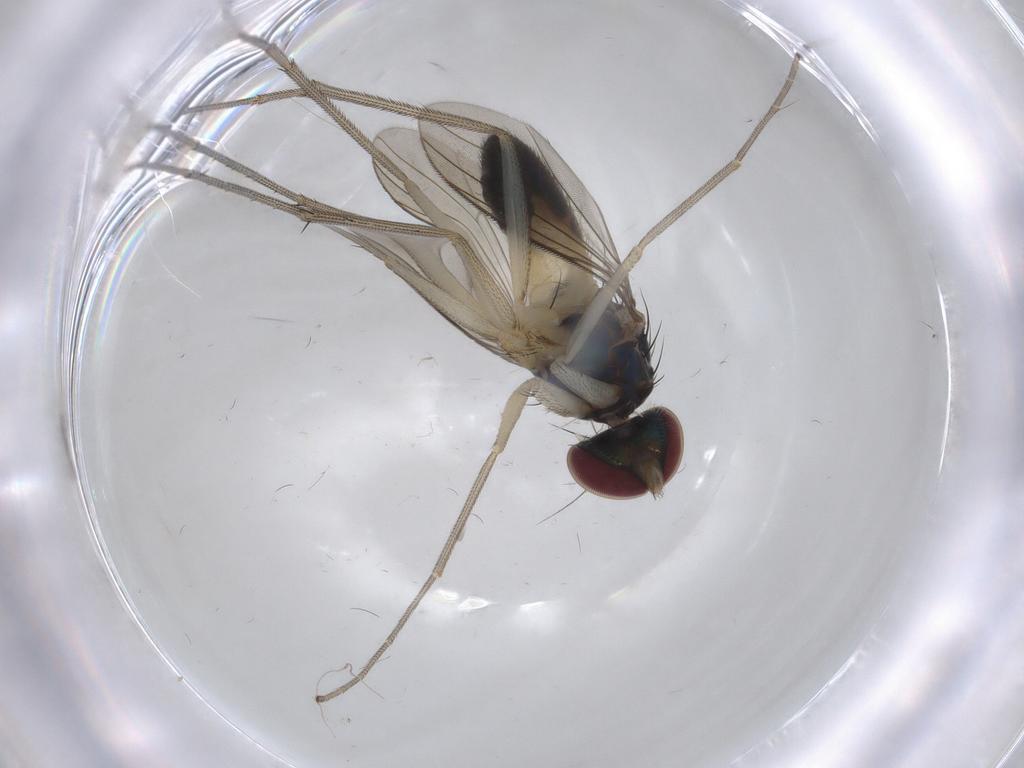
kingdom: Animalia
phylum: Arthropoda
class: Insecta
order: Diptera
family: Dolichopodidae
